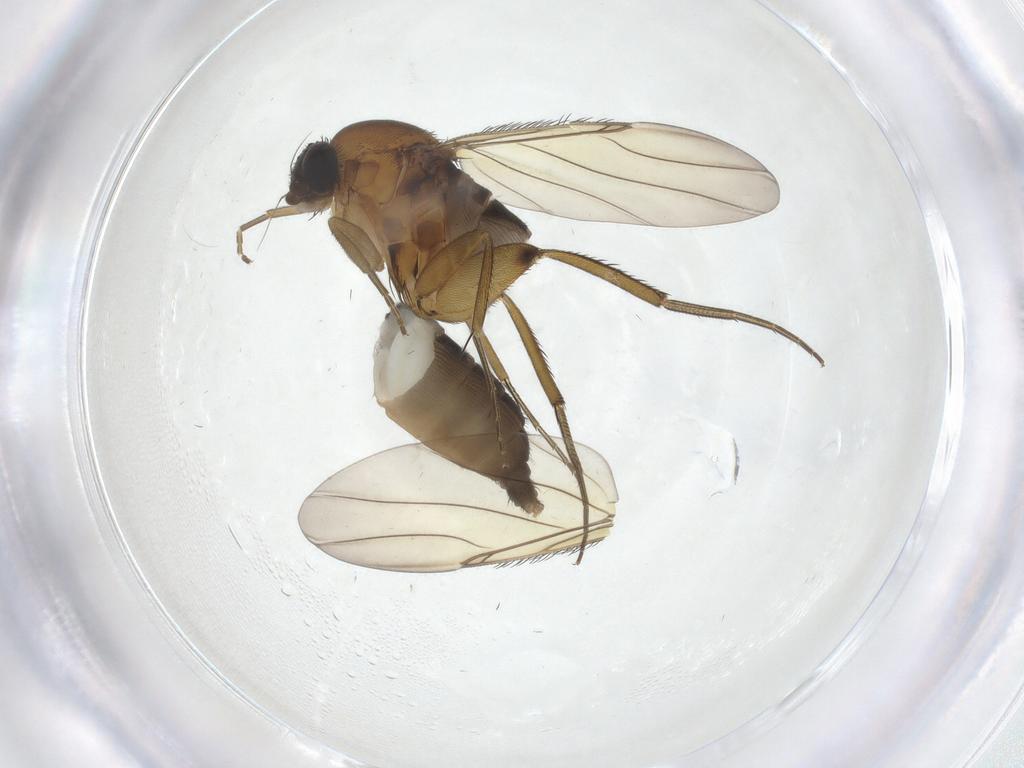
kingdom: Animalia
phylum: Arthropoda
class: Insecta
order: Diptera
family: Phoridae
